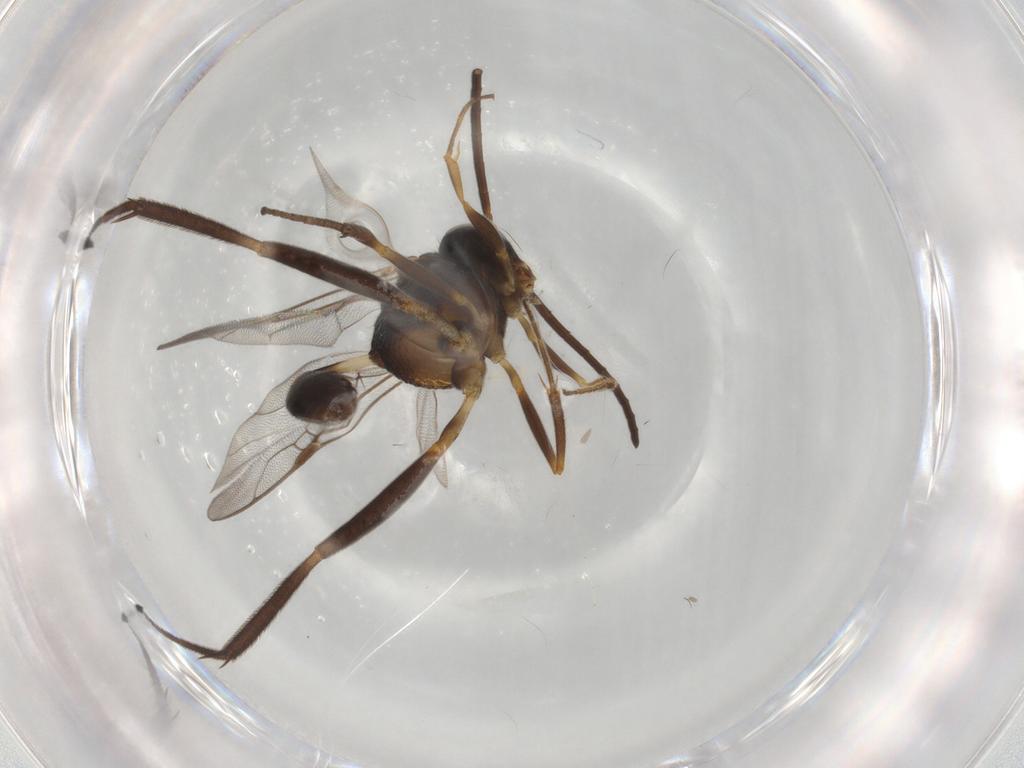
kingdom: Animalia
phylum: Arthropoda
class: Insecta
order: Hymenoptera
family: Evaniidae
